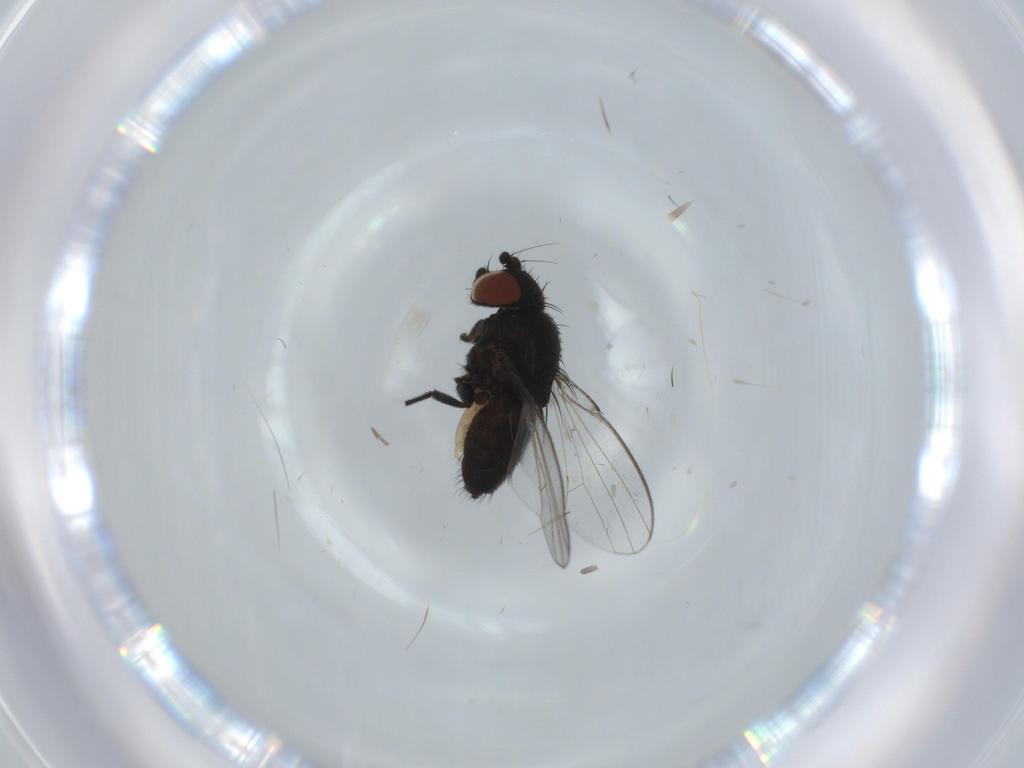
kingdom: Animalia
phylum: Arthropoda
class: Insecta
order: Diptera
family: Milichiidae
